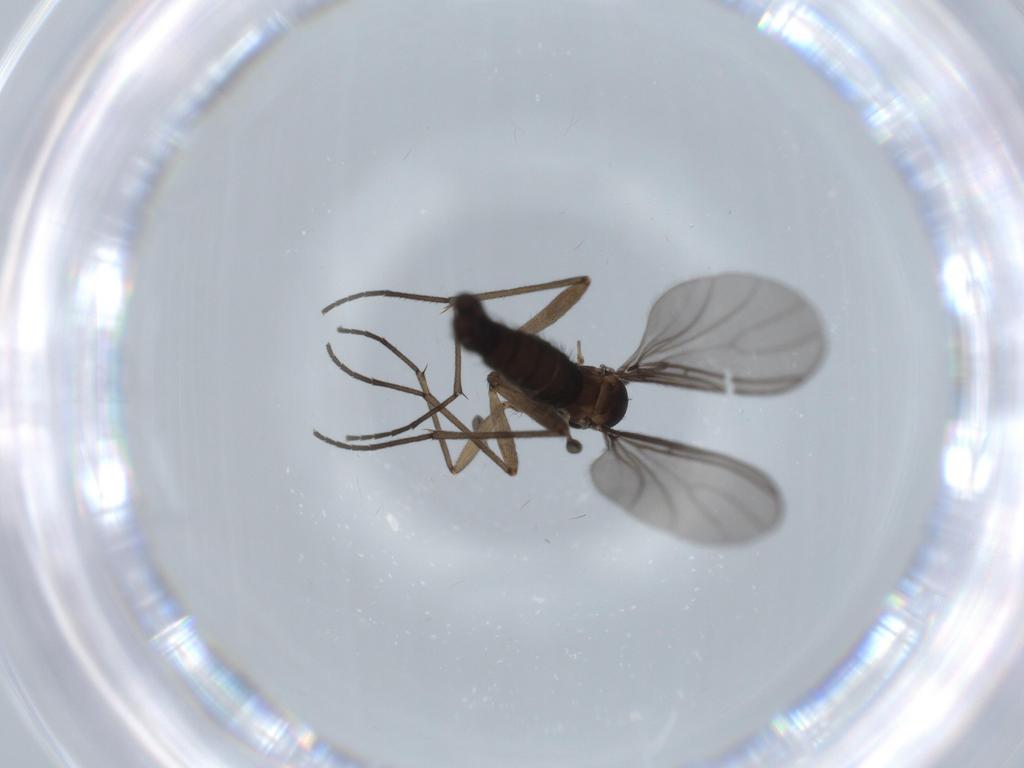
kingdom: Animalia
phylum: Arthropoda
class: Insecta
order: Diptera
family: Sciaridae
